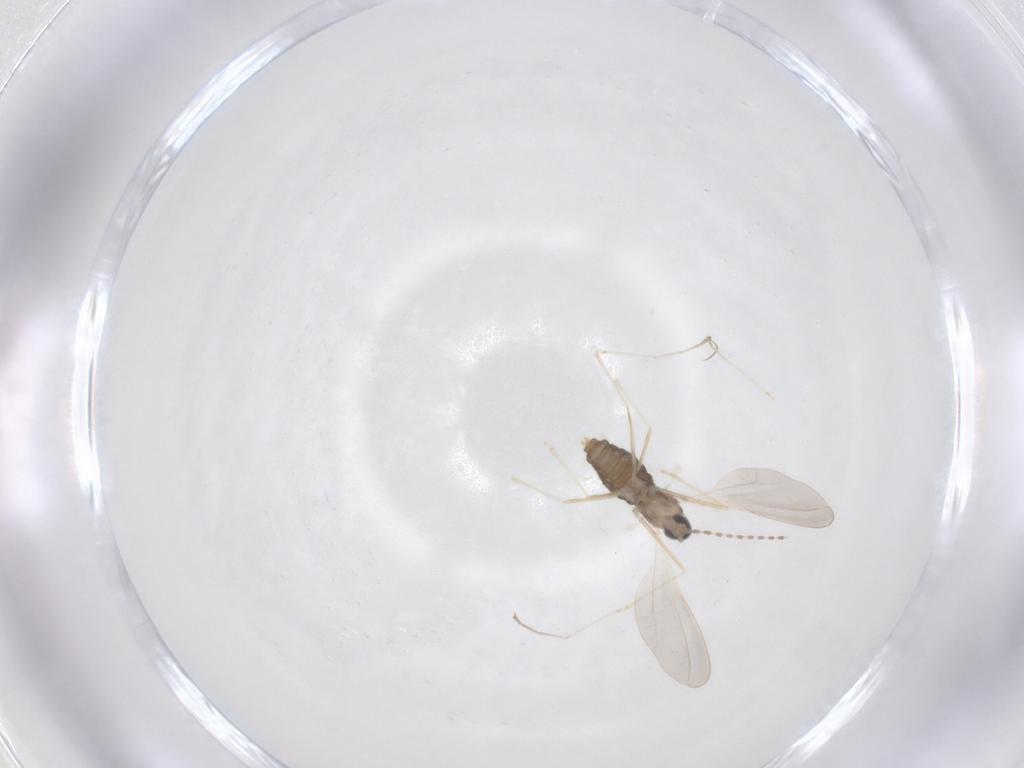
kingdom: Animalia
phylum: Arthropoda
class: Insecta
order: Diptera
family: Cecidomyiidae
